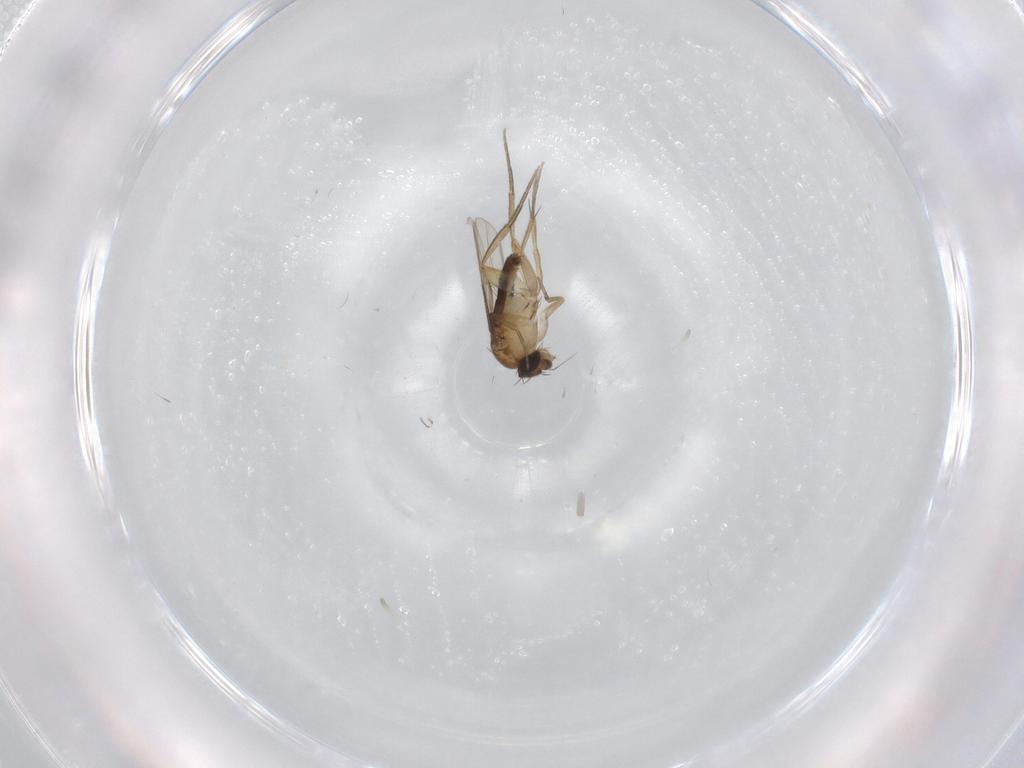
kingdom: Animalia
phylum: Arthropoda
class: Insecta
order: Diptera
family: Phoridae
